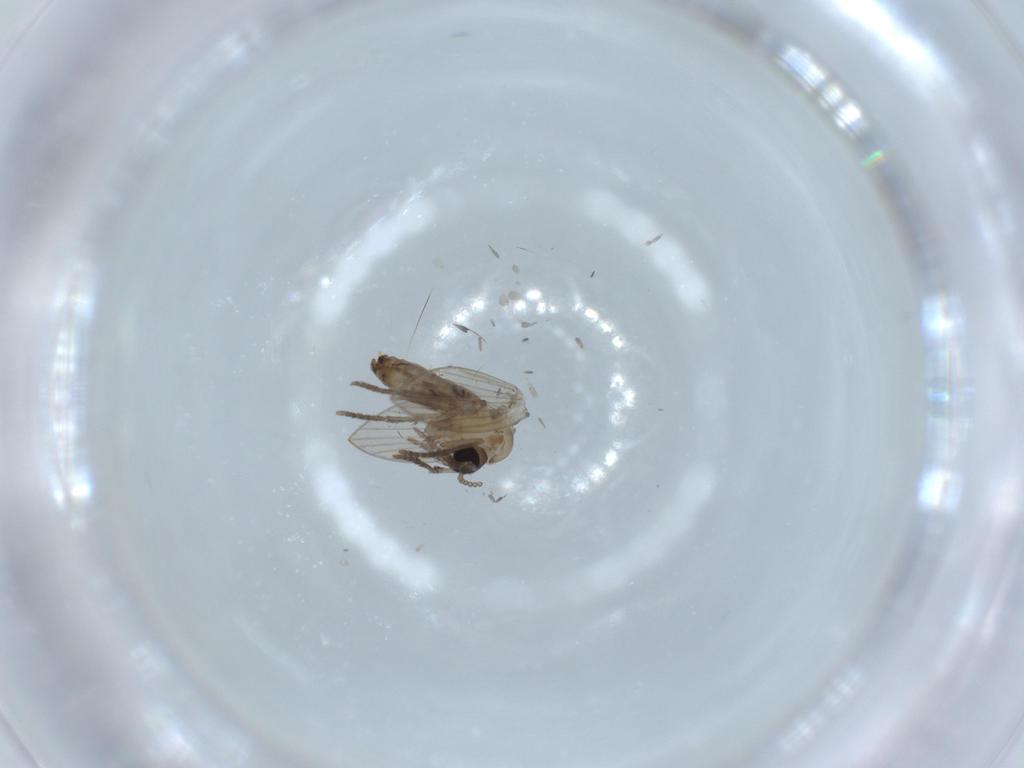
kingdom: Animalia
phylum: Arthropoda
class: Insecta
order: Diptera
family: Psychodidae
